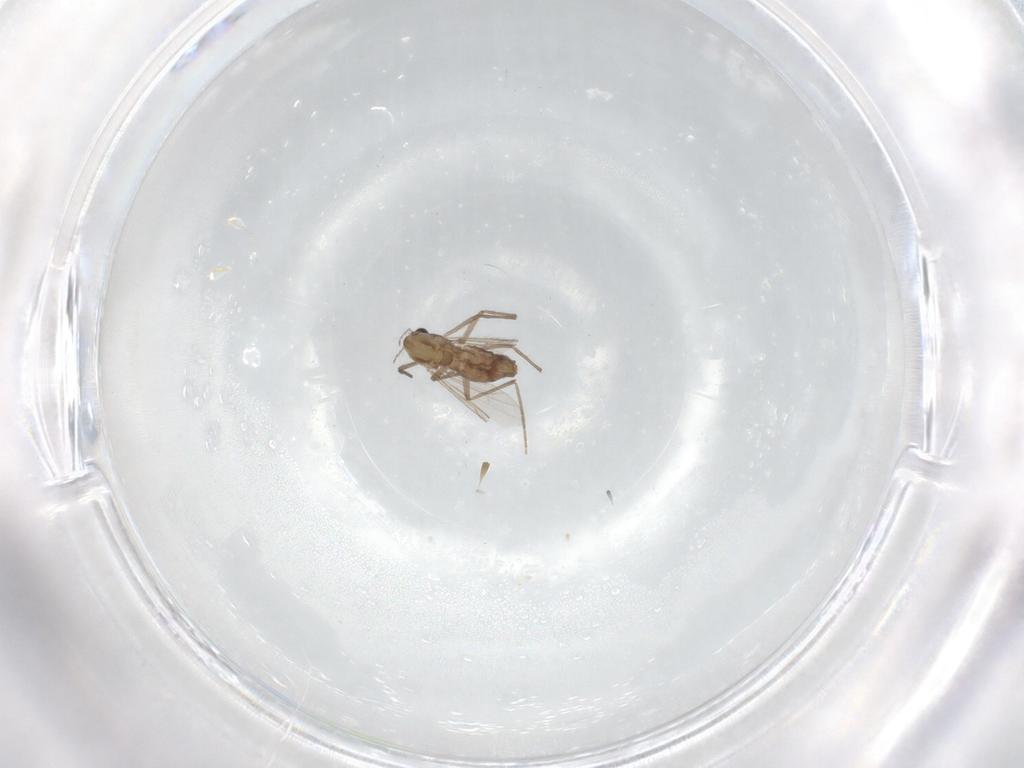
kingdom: Animalia
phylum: Arthropoda
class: Insecta
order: Diptera
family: Chironomidae
